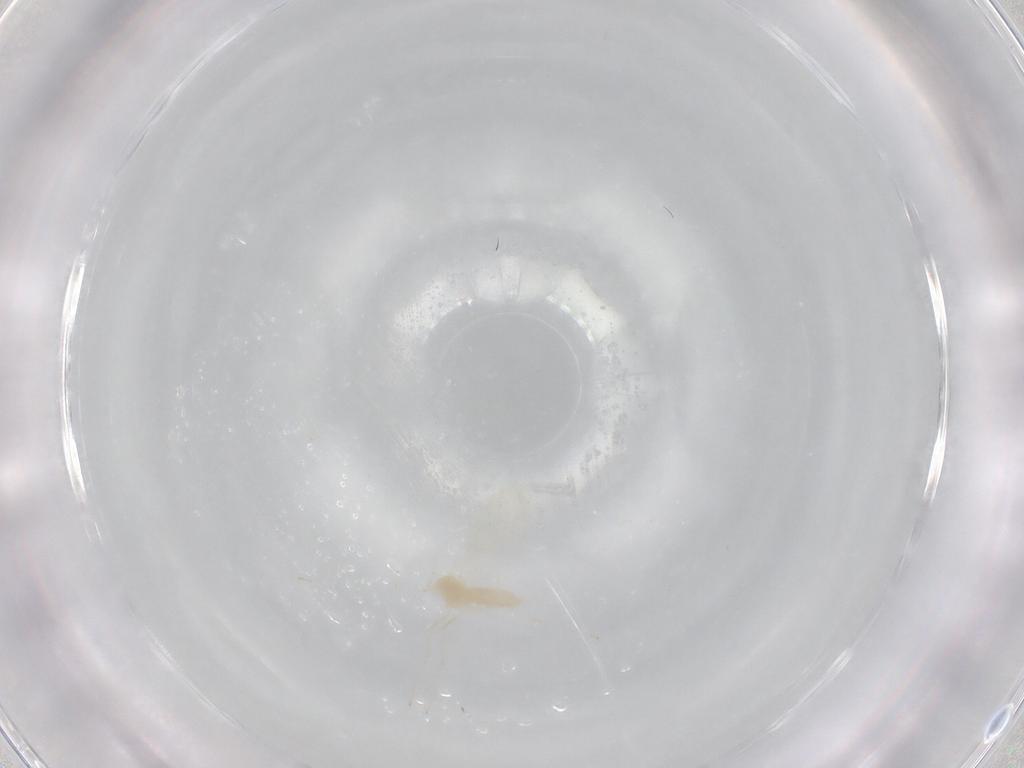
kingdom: Animalia
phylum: Arthropoda
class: Insecta
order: Diptera
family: Cecidomyiidae
